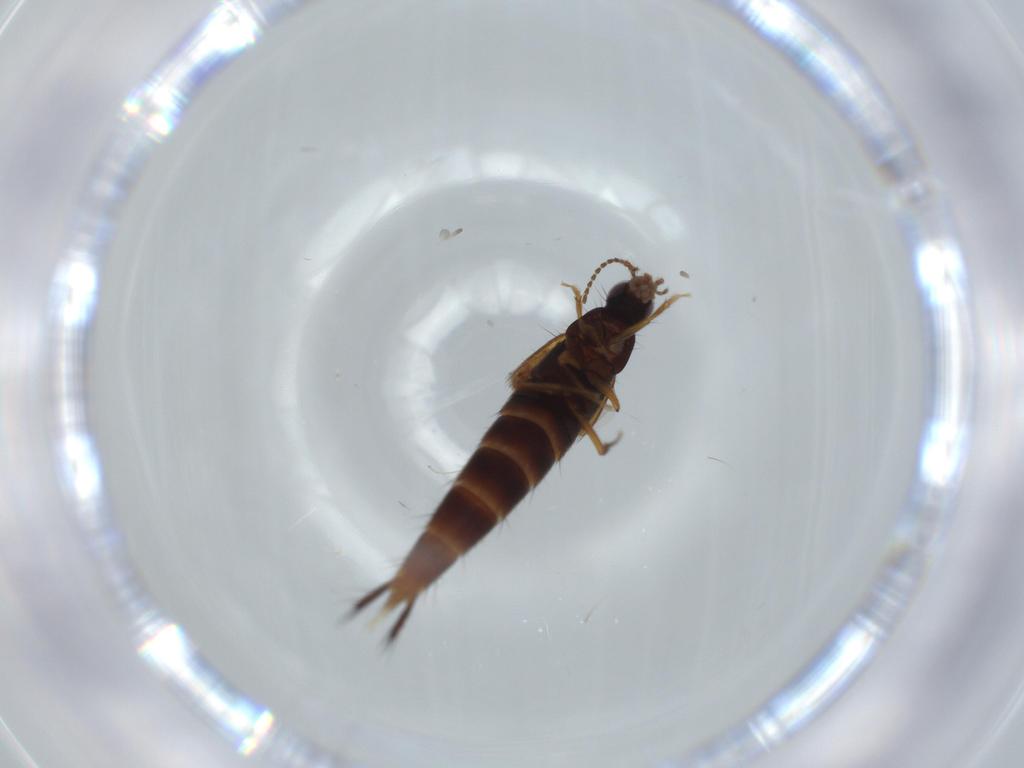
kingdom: Animalia
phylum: Arthropoda
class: Insecta
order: Coleoptera
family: Staphylinidae
